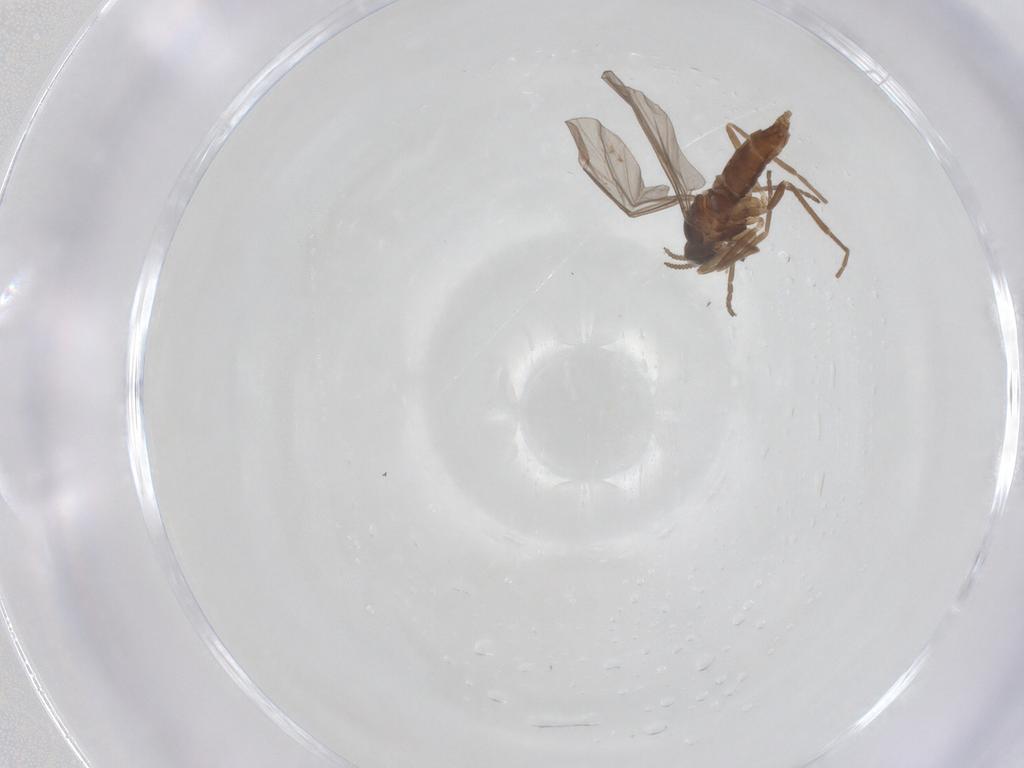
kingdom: Animalia
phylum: Arthropoda
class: Insecta
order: Diptera
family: Cecidomyiidae
